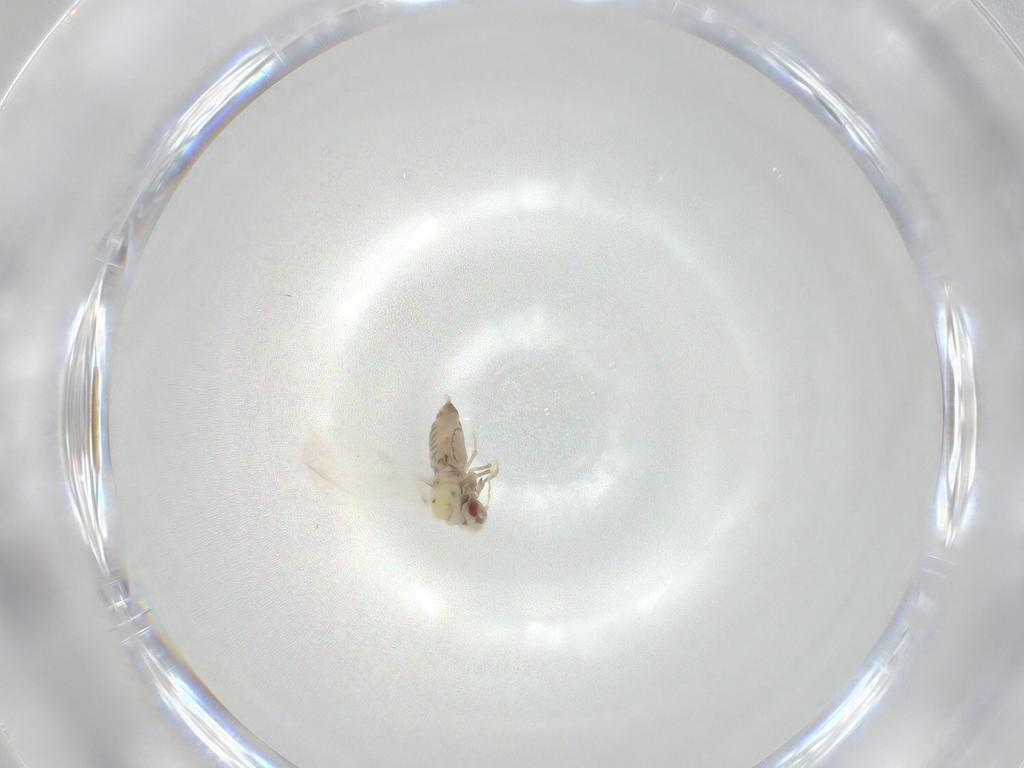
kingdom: Animalia
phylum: Arthropoda
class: Insecta
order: Hemiptera
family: Aleyrodidae
